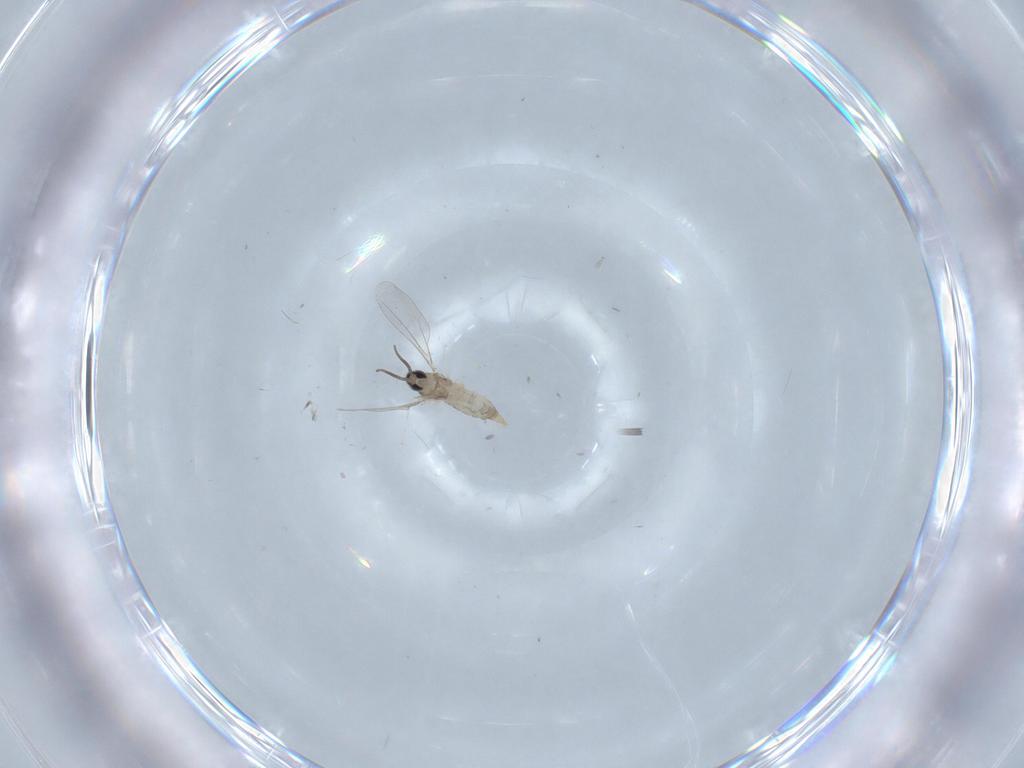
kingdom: Animalia
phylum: Arthropoda
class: Insecta
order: Diptera
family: Cecidomyiidae
